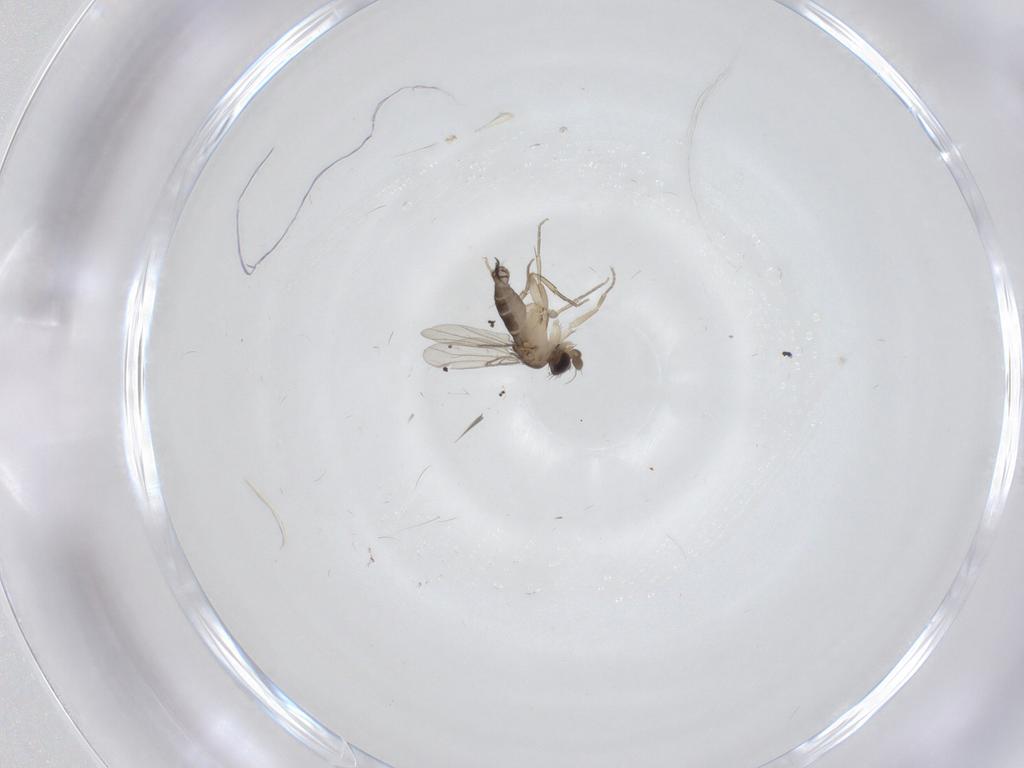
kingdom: Animalia
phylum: Arthropoda
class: Insecta
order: Diptera
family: Phoridae
